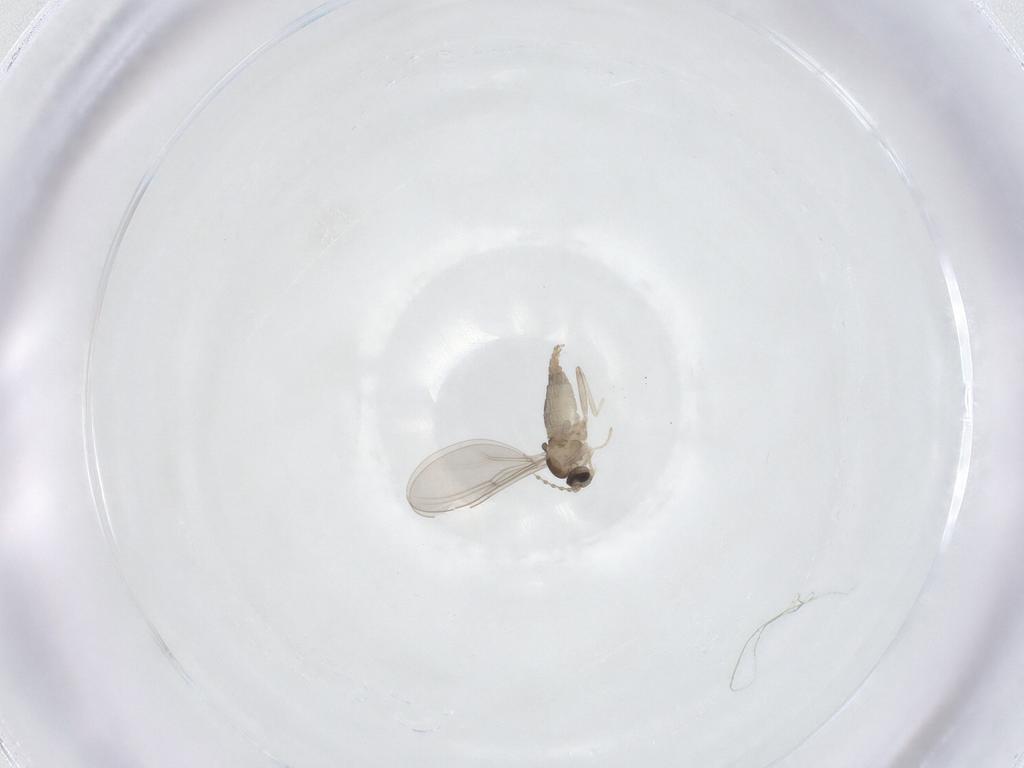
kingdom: Animalia
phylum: Arthropoda
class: Insecta
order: Diptera
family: Cecidomyiidae
